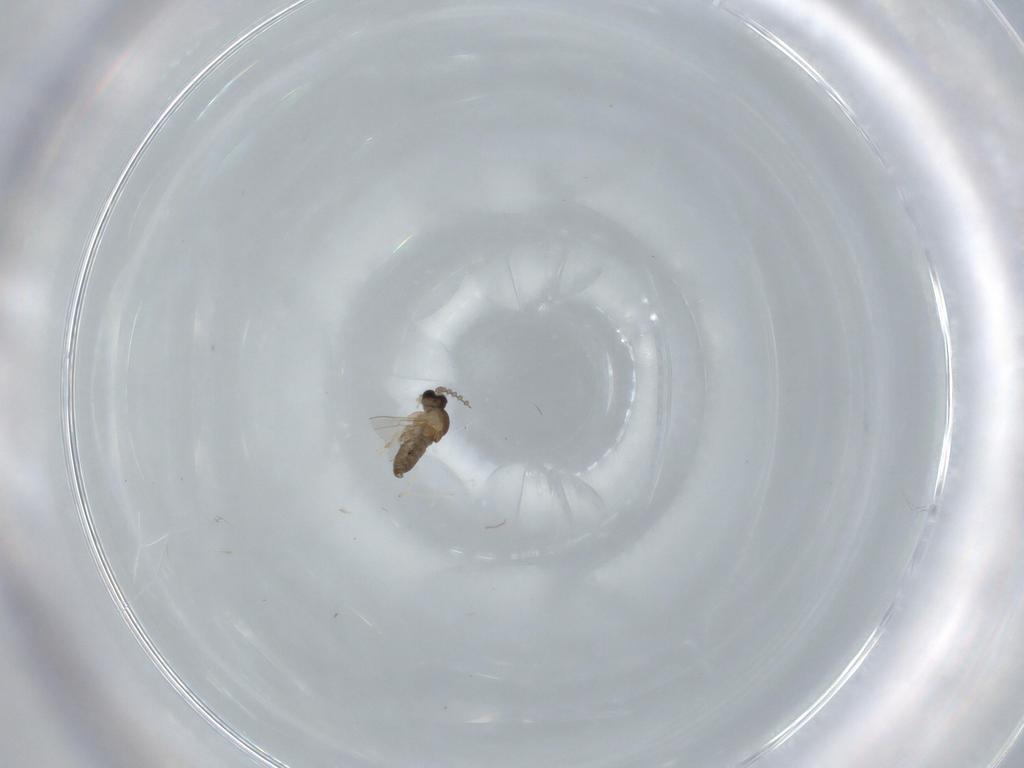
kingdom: Animalia
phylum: Arthropoda
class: Insecta
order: Diptera
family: Cecidomyiidae
